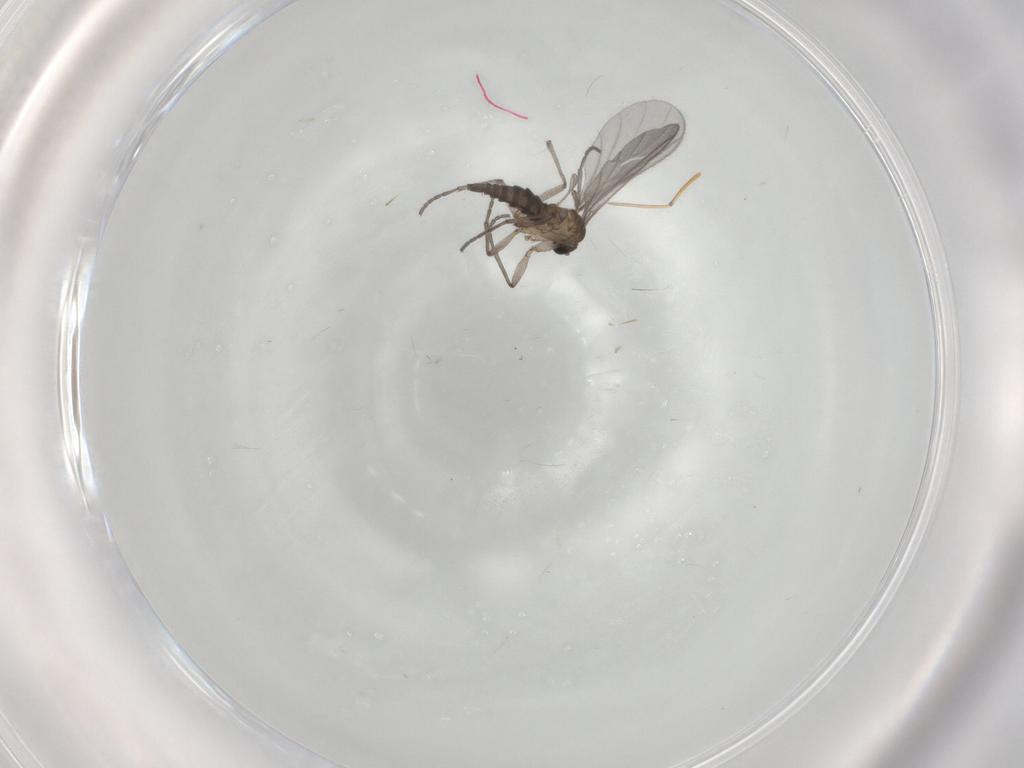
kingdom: Animalia
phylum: Arthropoda
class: Insecta
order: Diptera
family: Sciaridae
